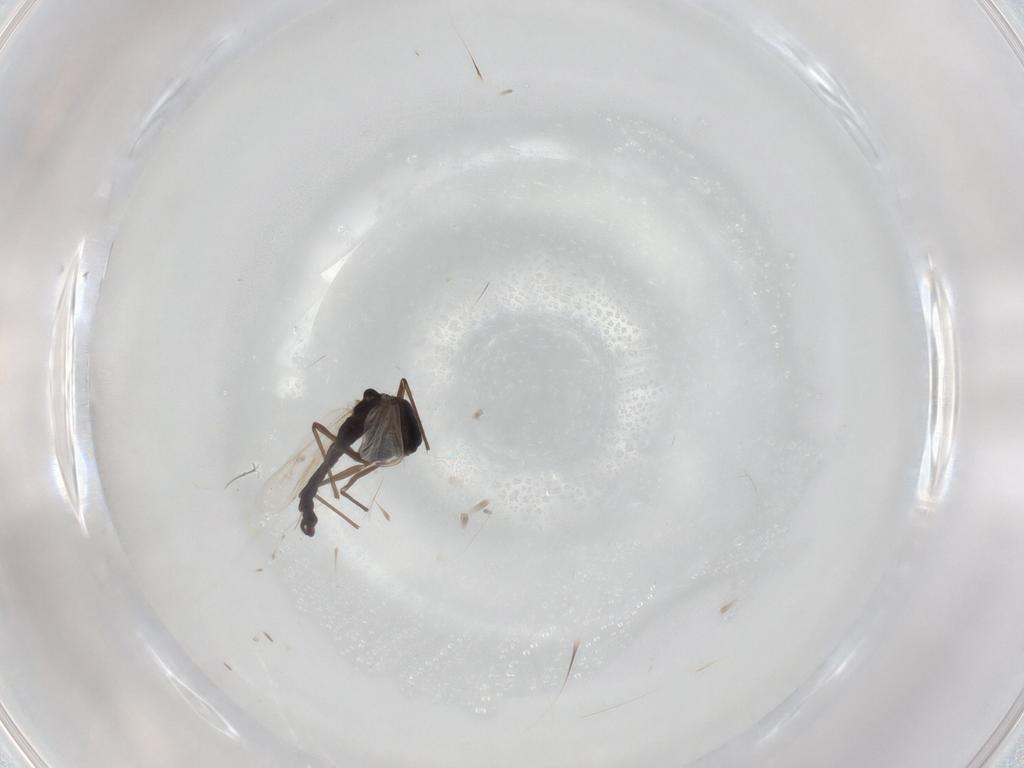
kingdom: Animalia
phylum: Arthropoda
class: Insecta
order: Diptera
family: Chironomidae
